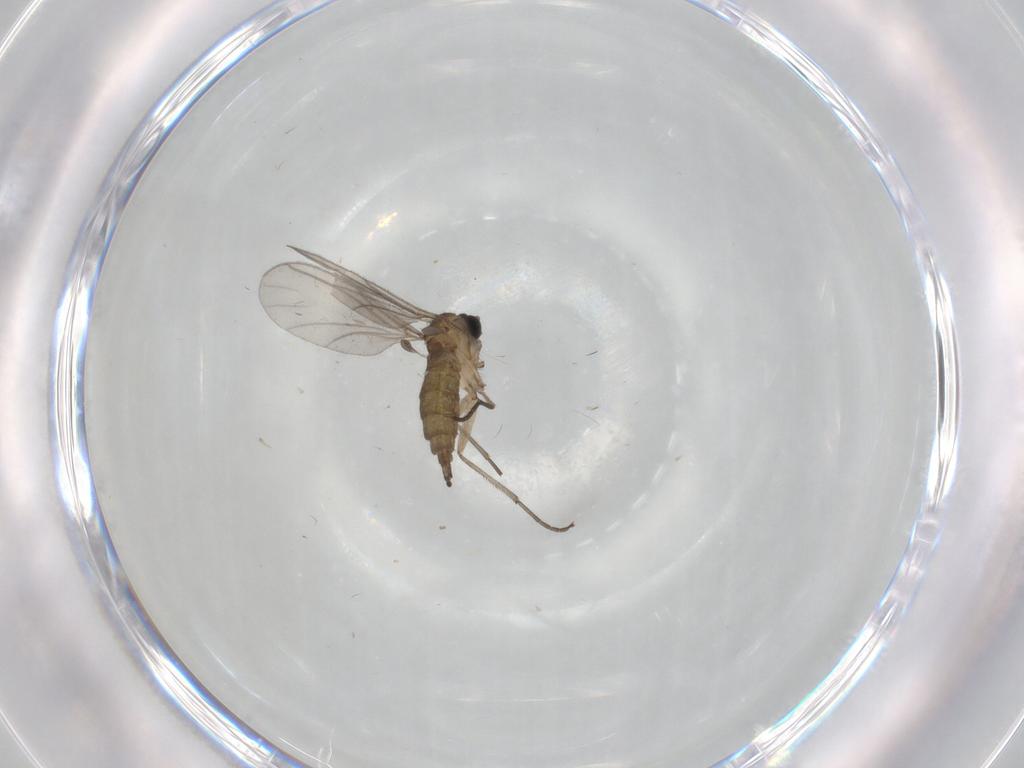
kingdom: Animalia
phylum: Arthropoda
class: Insecta
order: Diptera
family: Sciaridae
